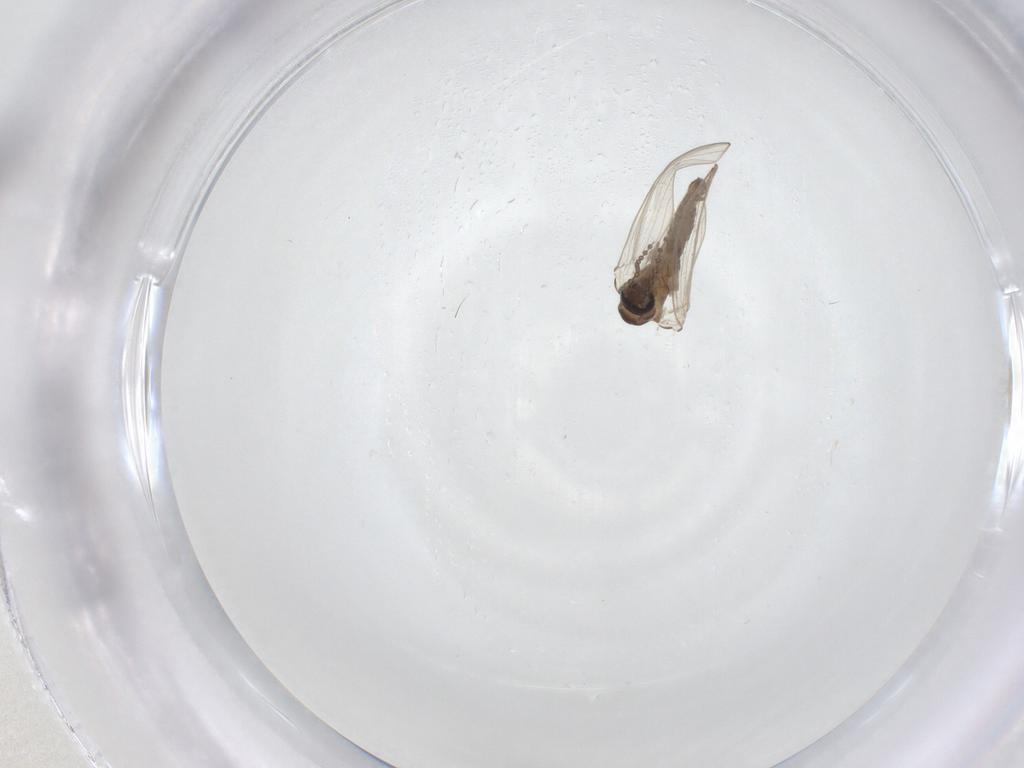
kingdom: Animalia
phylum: Arthropoda
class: Insecta
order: Diptera
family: Psychodidae
